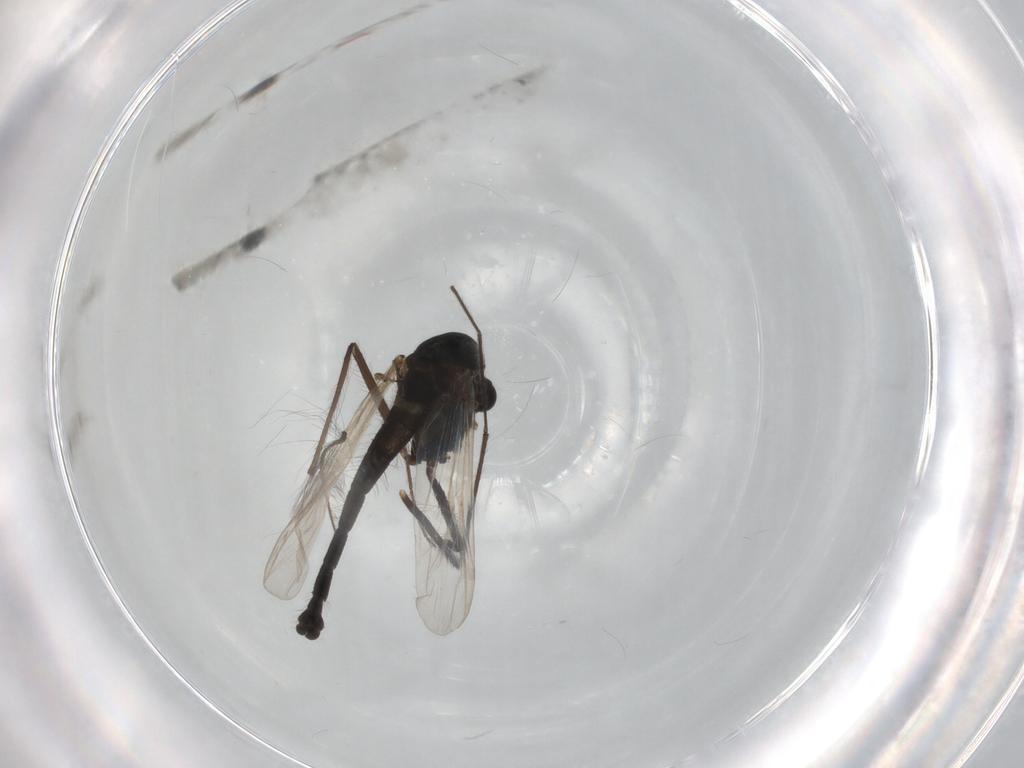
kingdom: Animalia
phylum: Arthropoda
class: Insecta
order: Diptera
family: Chironomidae
